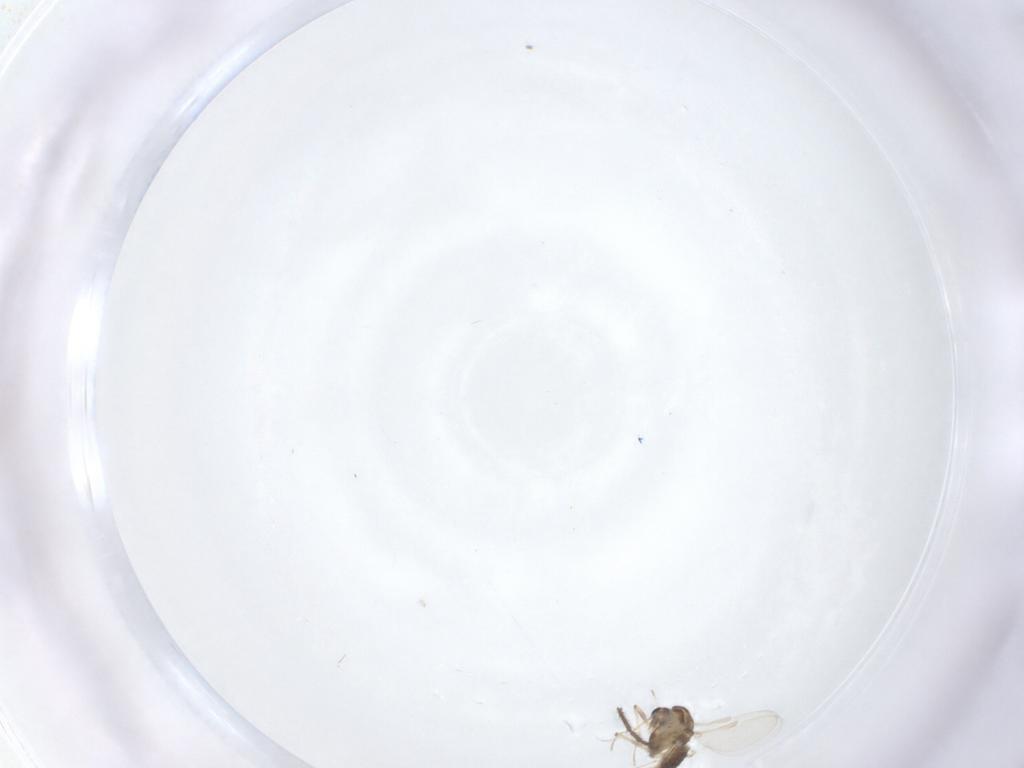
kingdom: Animalia
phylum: Arthropoda
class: Insecta
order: Diptera
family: Chironomidae
